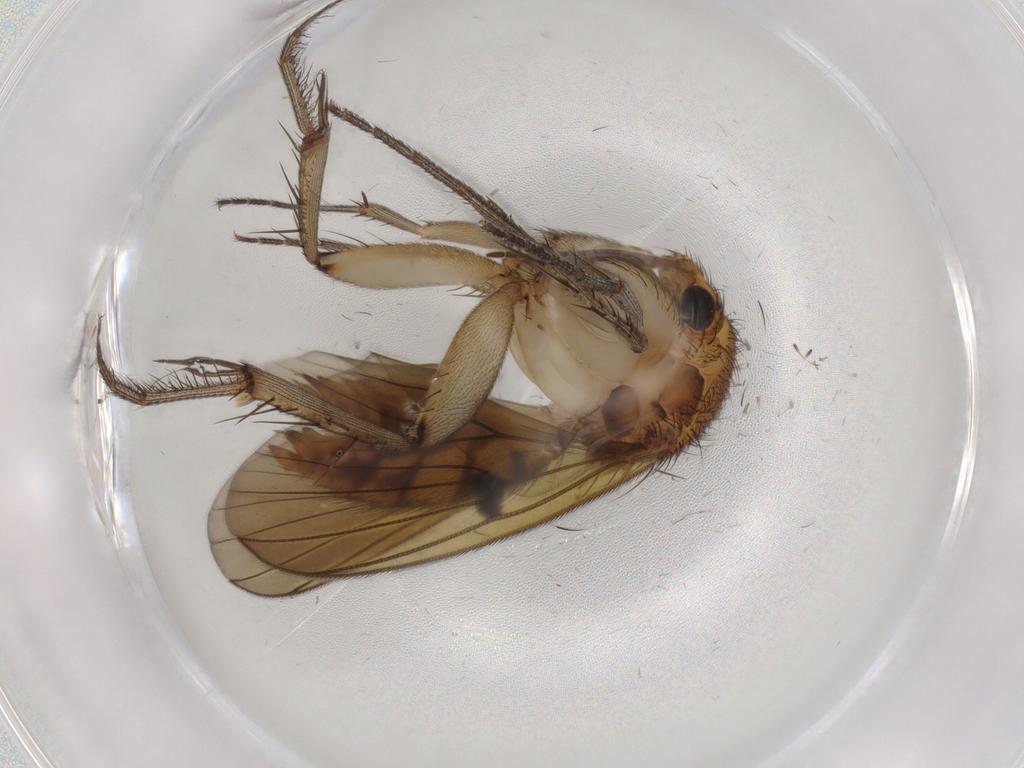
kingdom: Animalia
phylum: Arthropoda
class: Insecta
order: Diptera
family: Mycetophilidae
